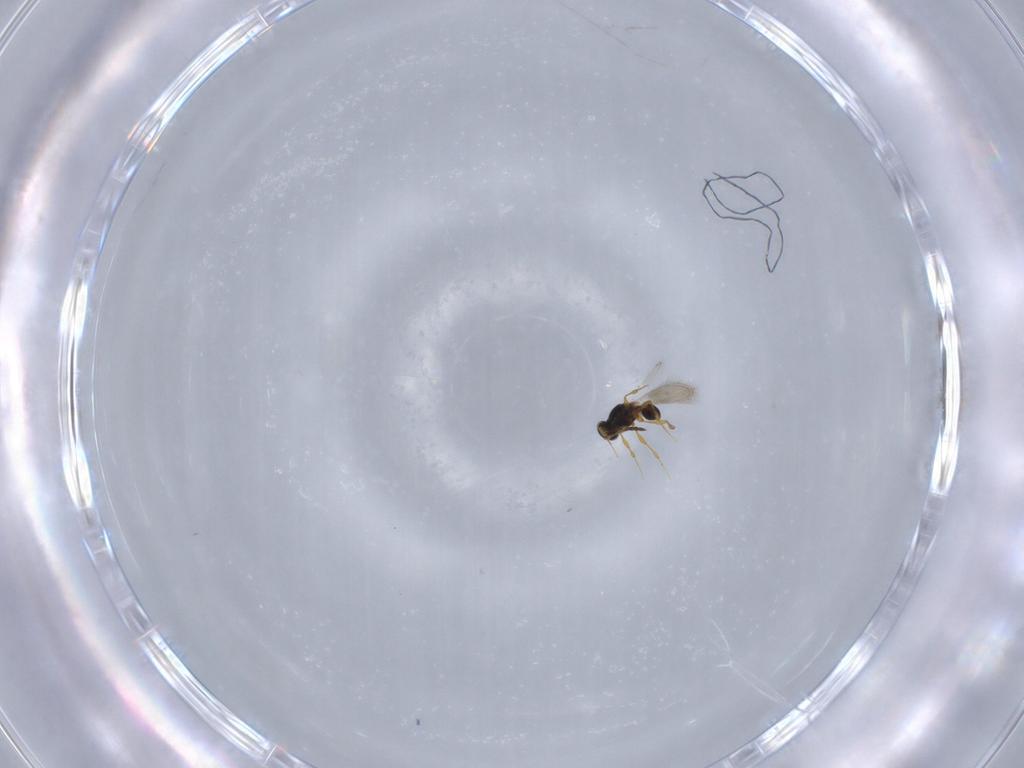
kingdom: Animalia
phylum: Arthropoda
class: Insecta
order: Hymenoptera
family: Platygastridae
